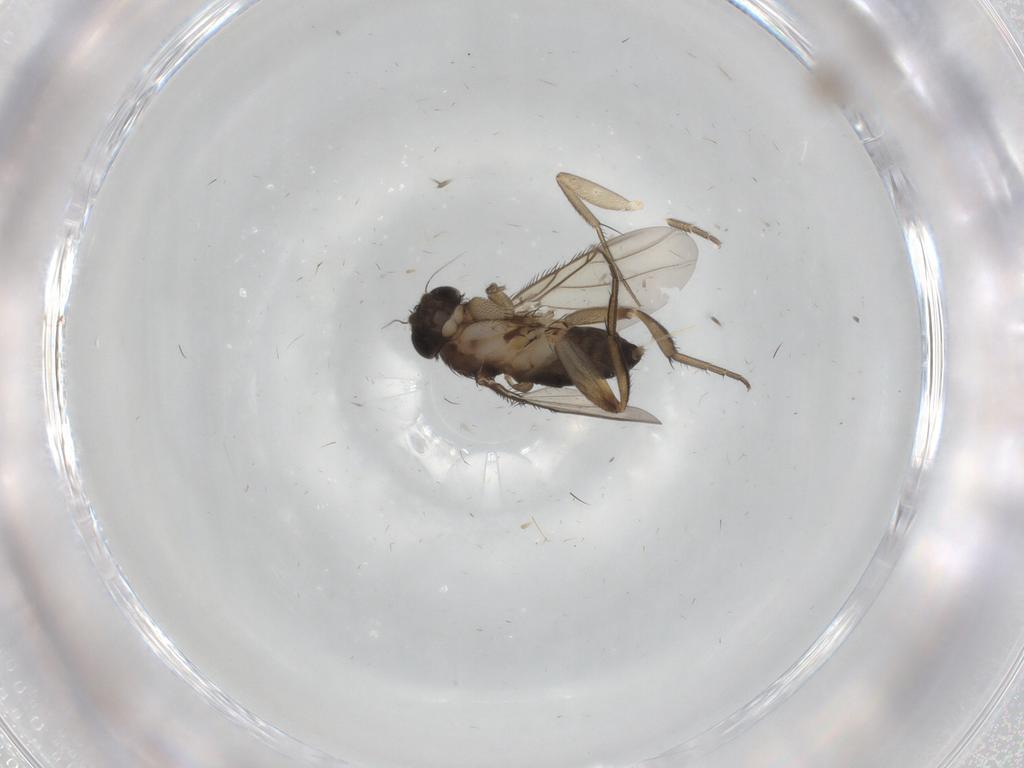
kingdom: Animalia
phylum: Arthropoda
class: Insecta
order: Diptera
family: Phoridae
